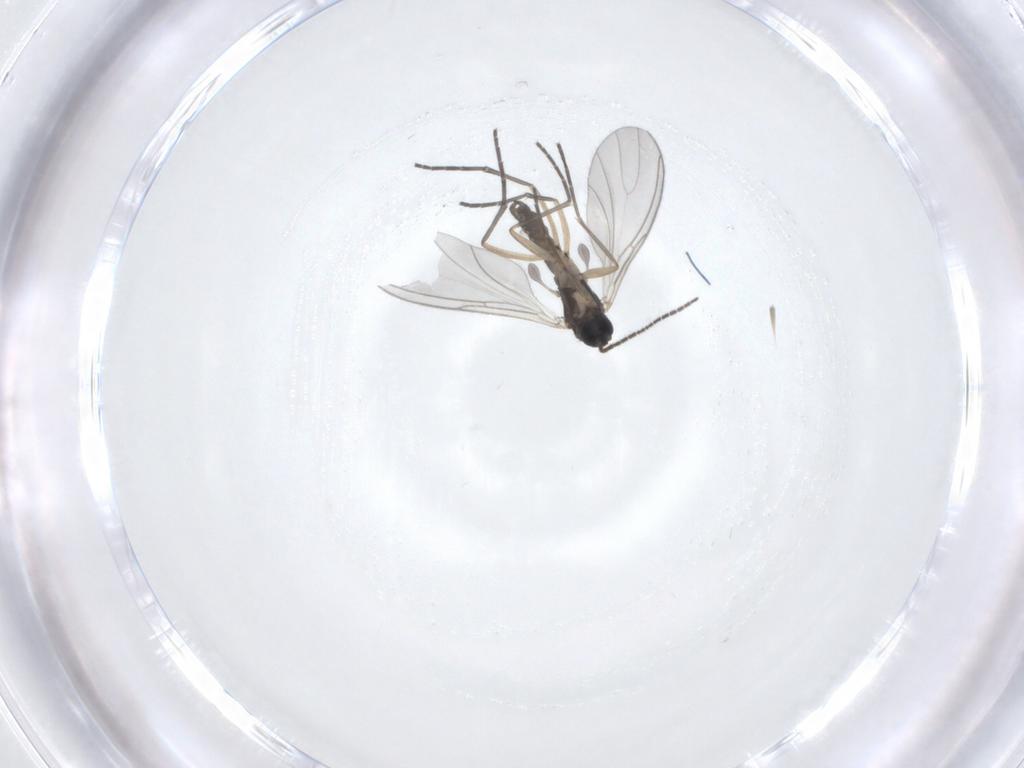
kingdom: Animalia
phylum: Arthropoda
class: Insecta
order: Diptera
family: Sciaridae
